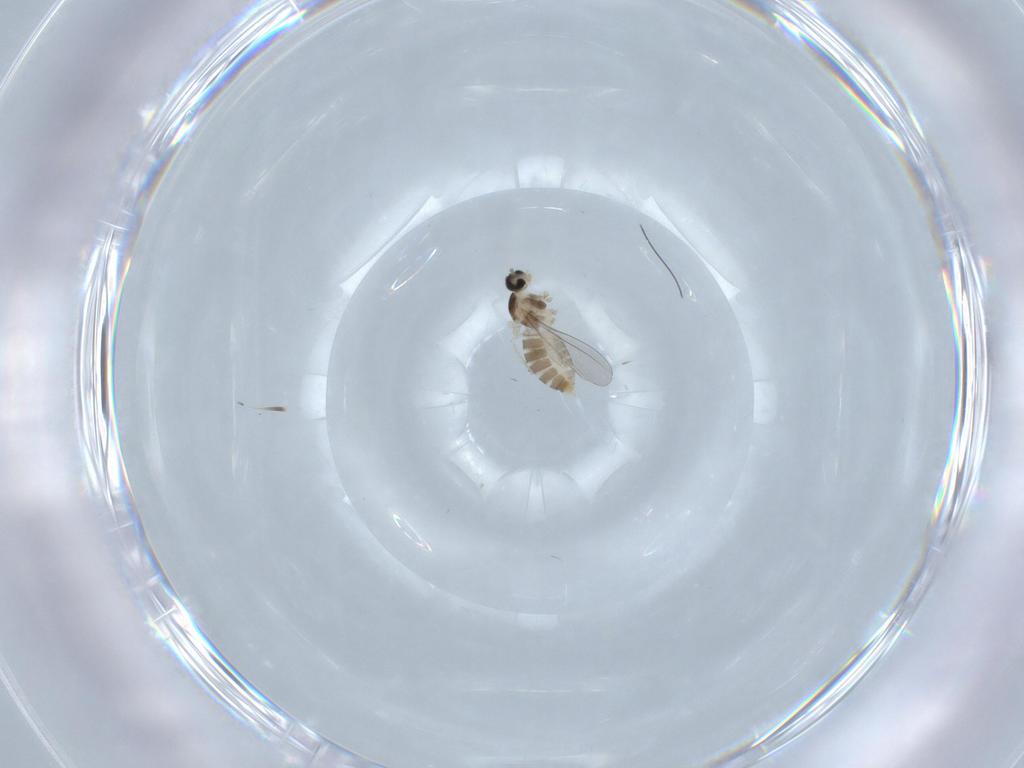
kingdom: Animalia
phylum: Arthropoda
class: Insecta
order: Diptera
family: Cecidomyiidae
